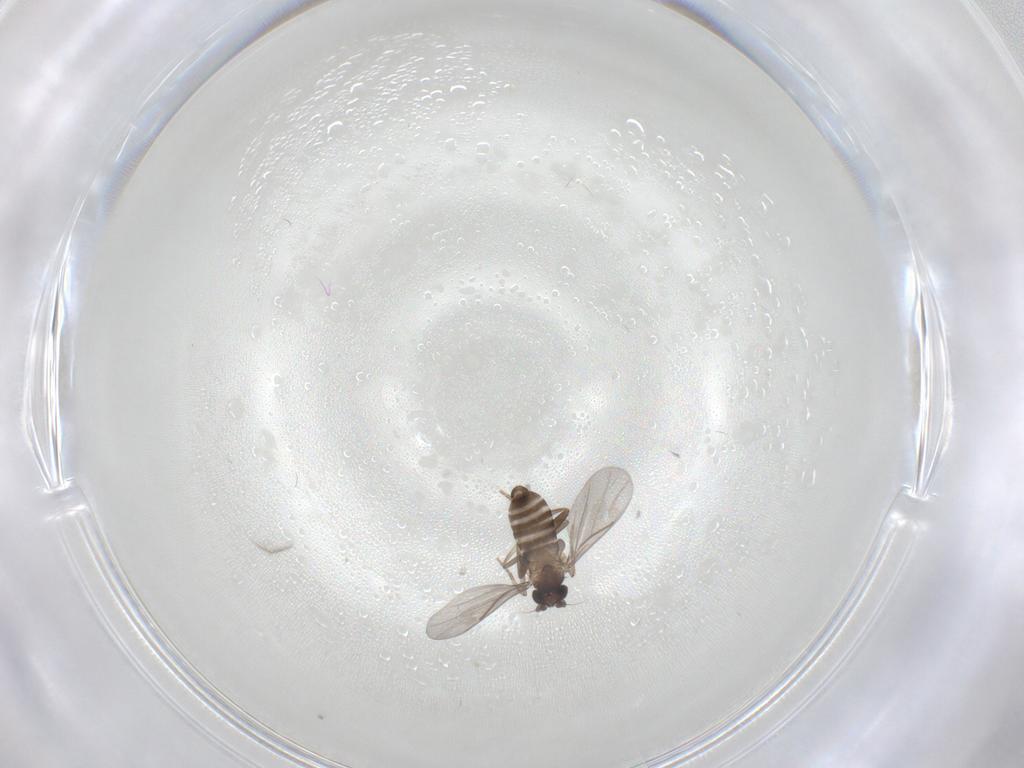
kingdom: Animalia
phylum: Arthropoda
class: Insecta
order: Diptera
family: Phoridae
